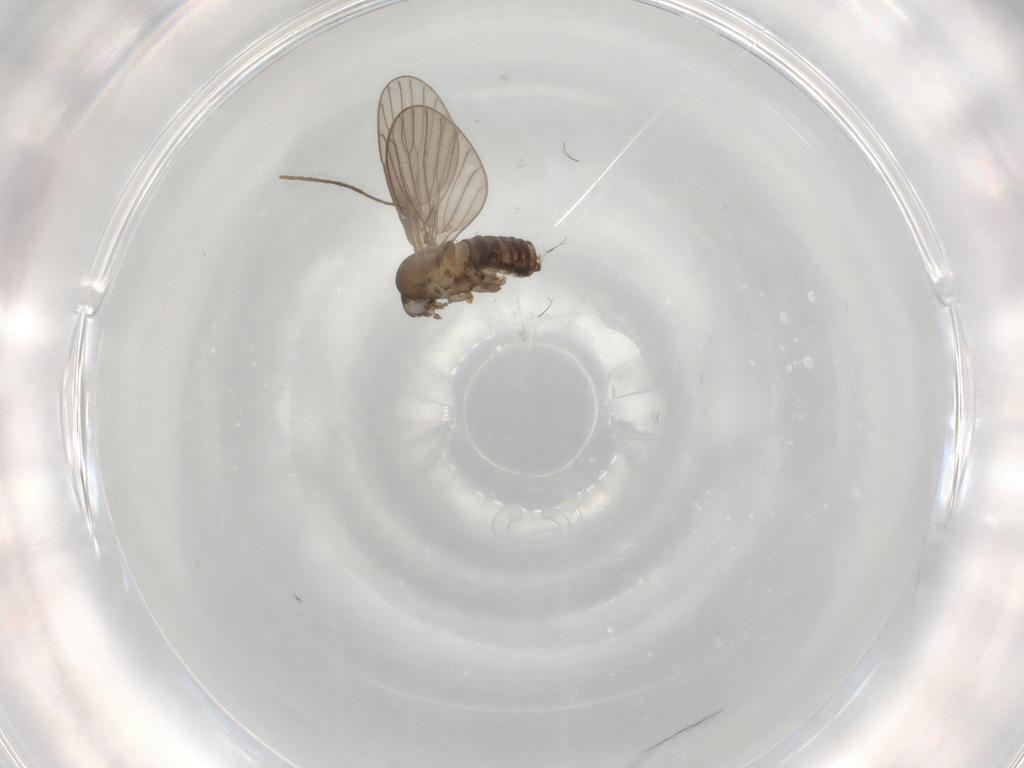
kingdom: Animalia
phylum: Arthropoda
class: Insecta
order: Diptera
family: Psychodidae
